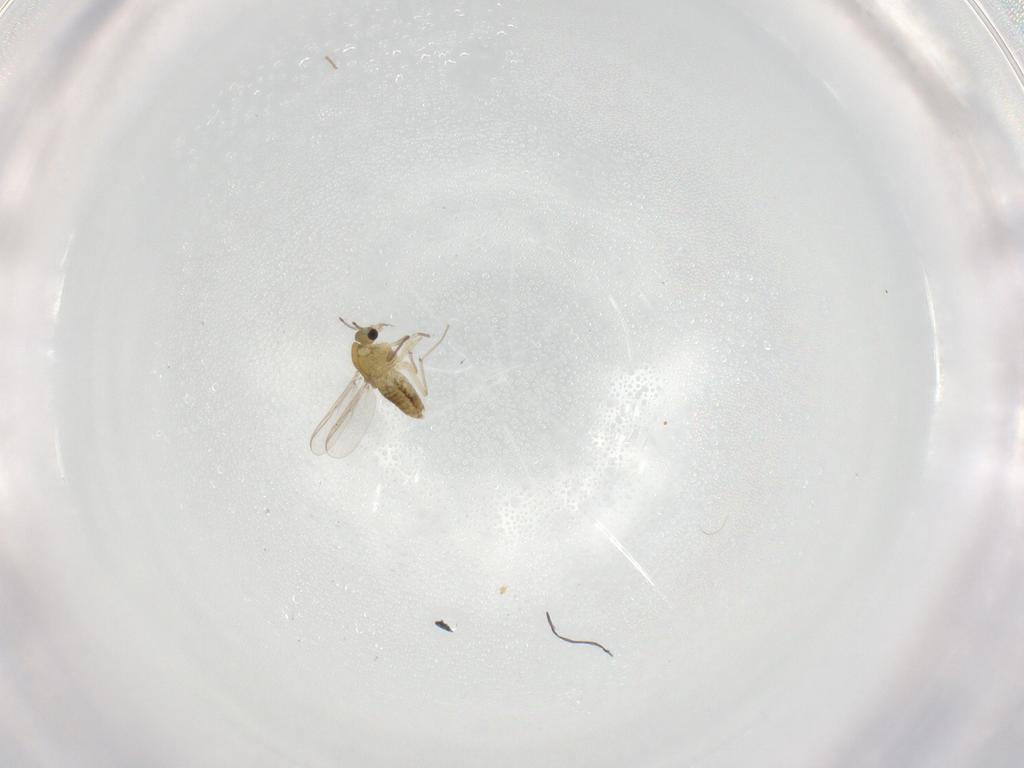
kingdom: Animalia
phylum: Arthropoda
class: Insecta
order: Diptera
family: Chironomidae
